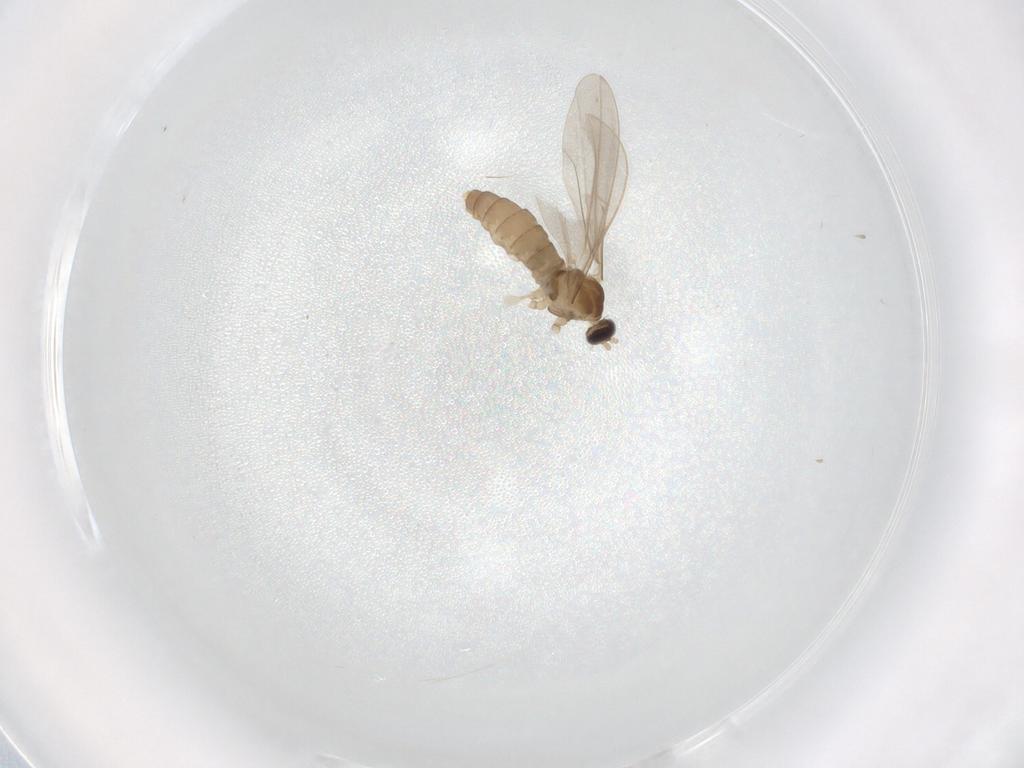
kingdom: Animalia
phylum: Arthropoda
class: Insecta
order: Diptera
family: Cecidomyiidae
